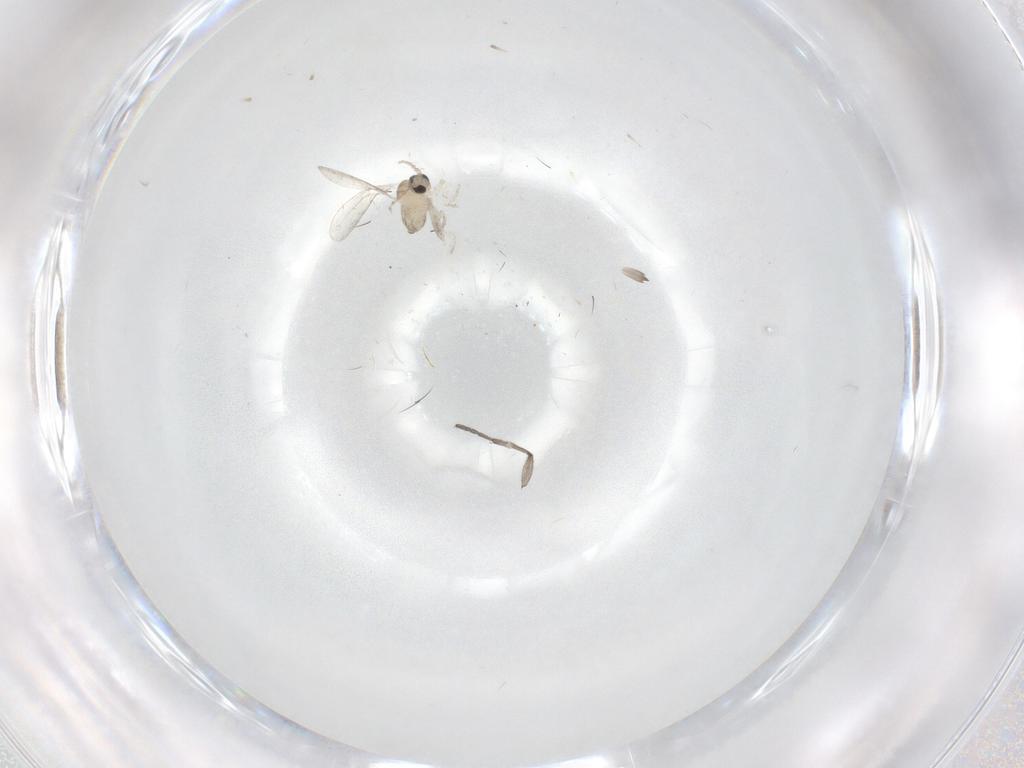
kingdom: Animalia
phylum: Arthropoda
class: Insecta
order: Diptera
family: Cecidomyiidae
